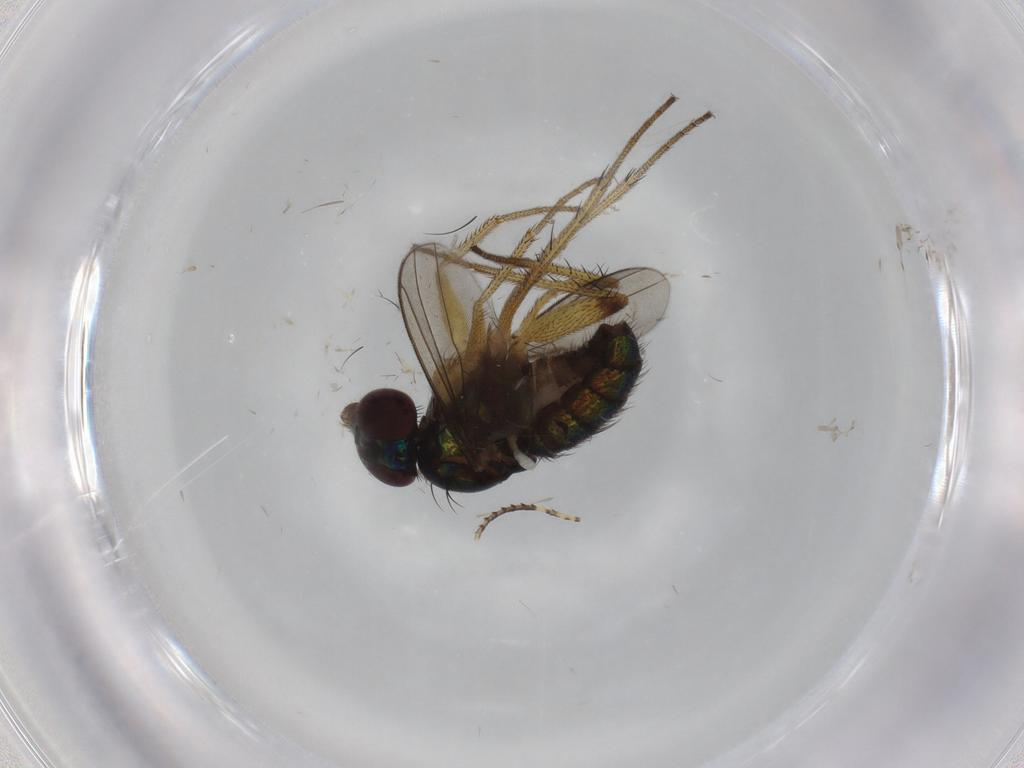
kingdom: Animalia
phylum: Arthropoda
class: Insecta
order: Diptera
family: Dolichopodidae
